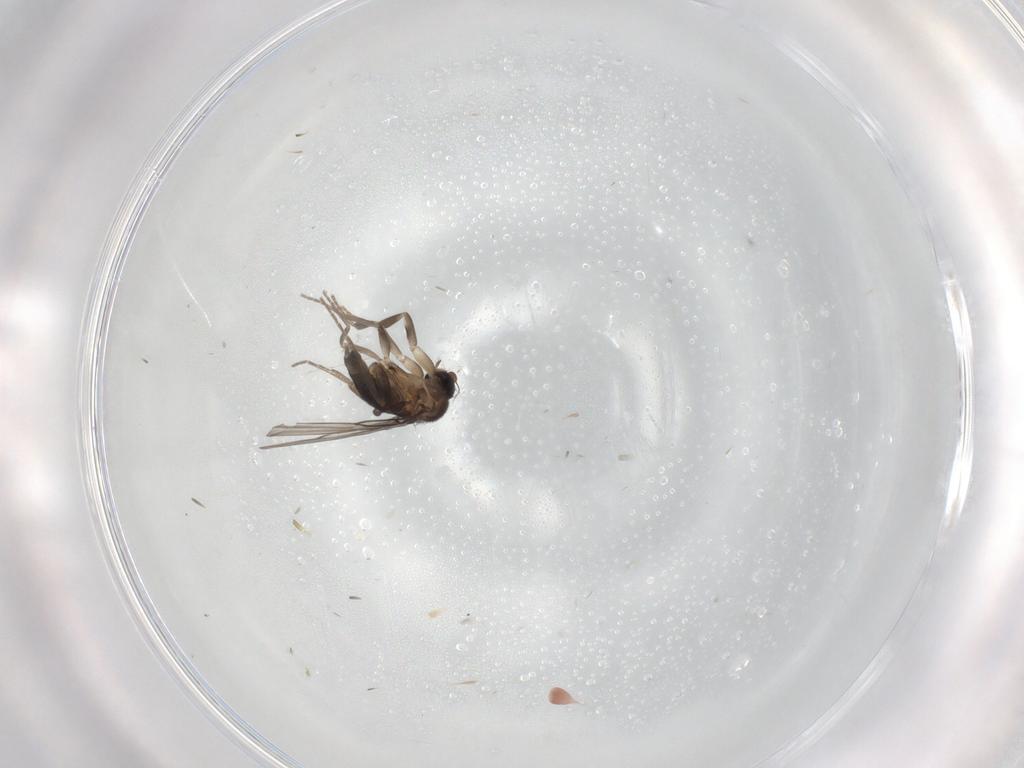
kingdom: Animalia
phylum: Arthropoda
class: Insecta
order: Diptera
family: Phoridae
